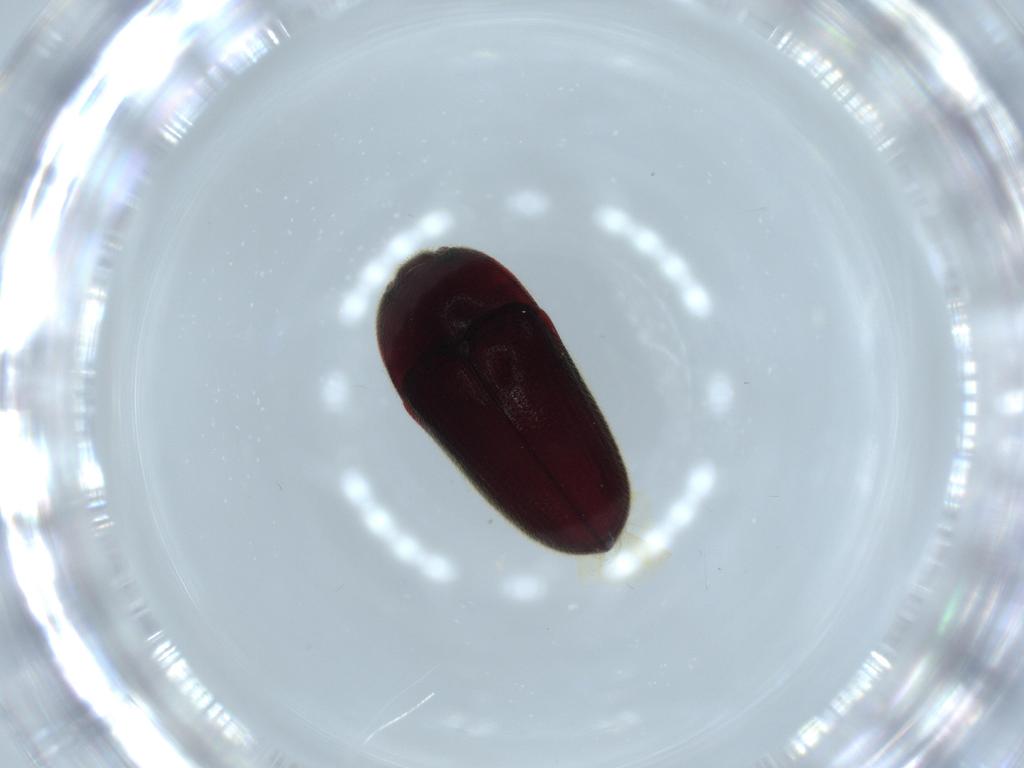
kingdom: Animalia
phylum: Arthropoda
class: Insecta
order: Coleoptera
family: Throscidae
